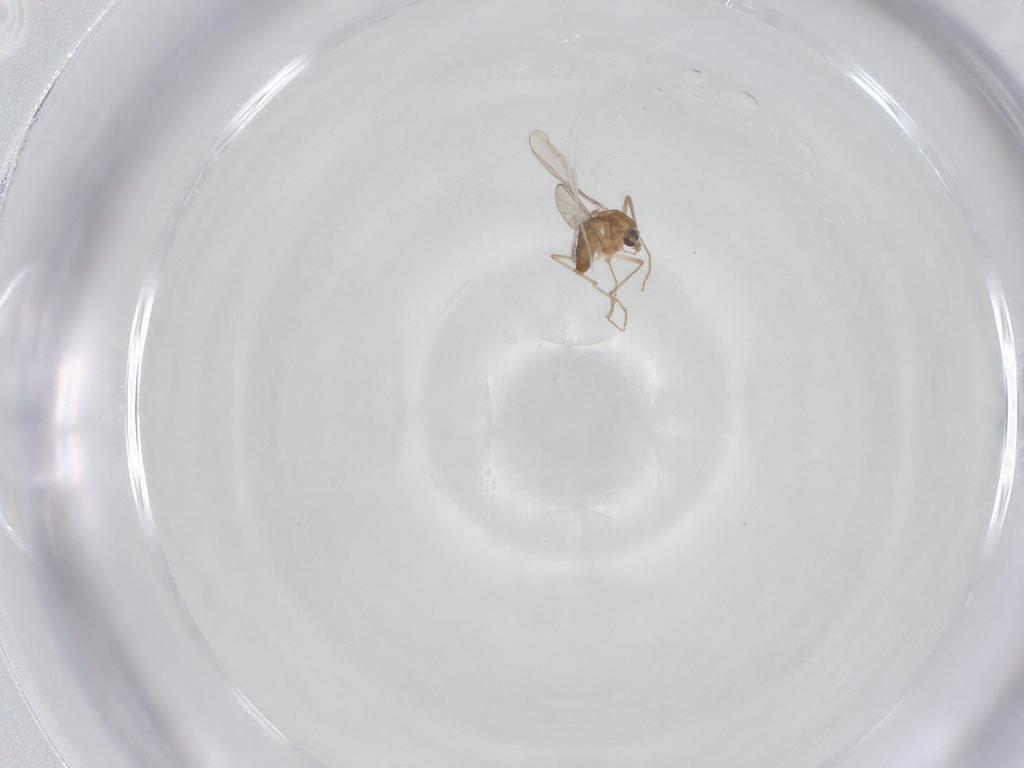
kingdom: Animalia
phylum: Arthropoda
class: Insecta
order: Diptera
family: Chironomidae
